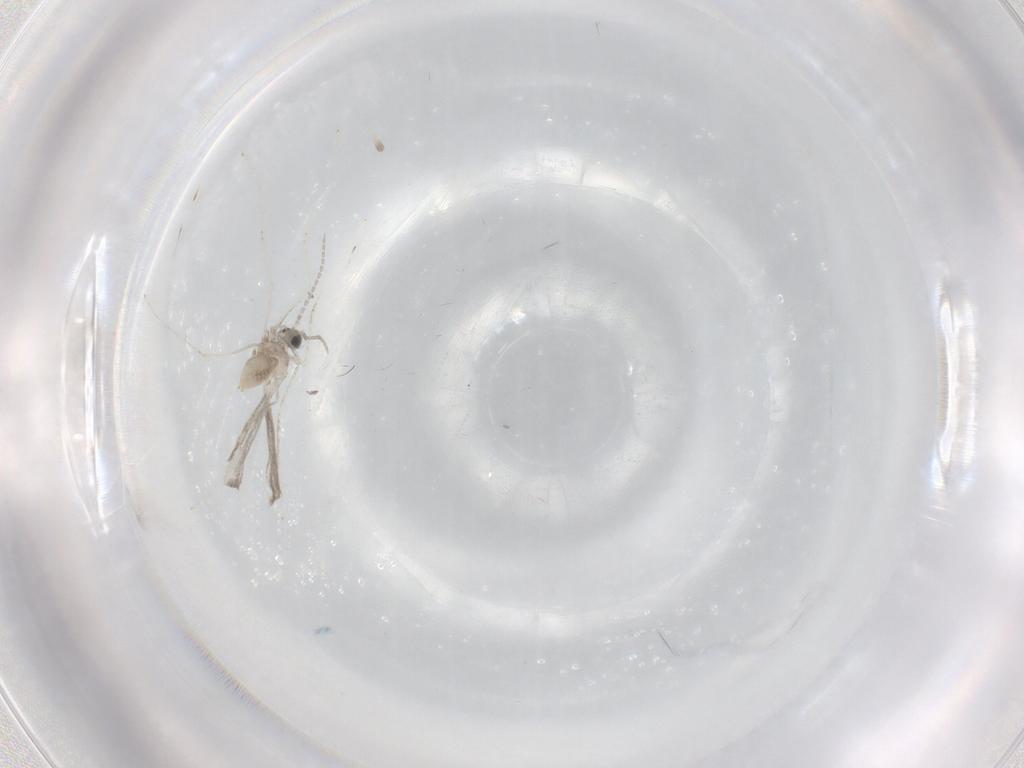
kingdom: Animalia
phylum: Arthropoda
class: Insecta
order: Diptera
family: Cecidomyiidae
